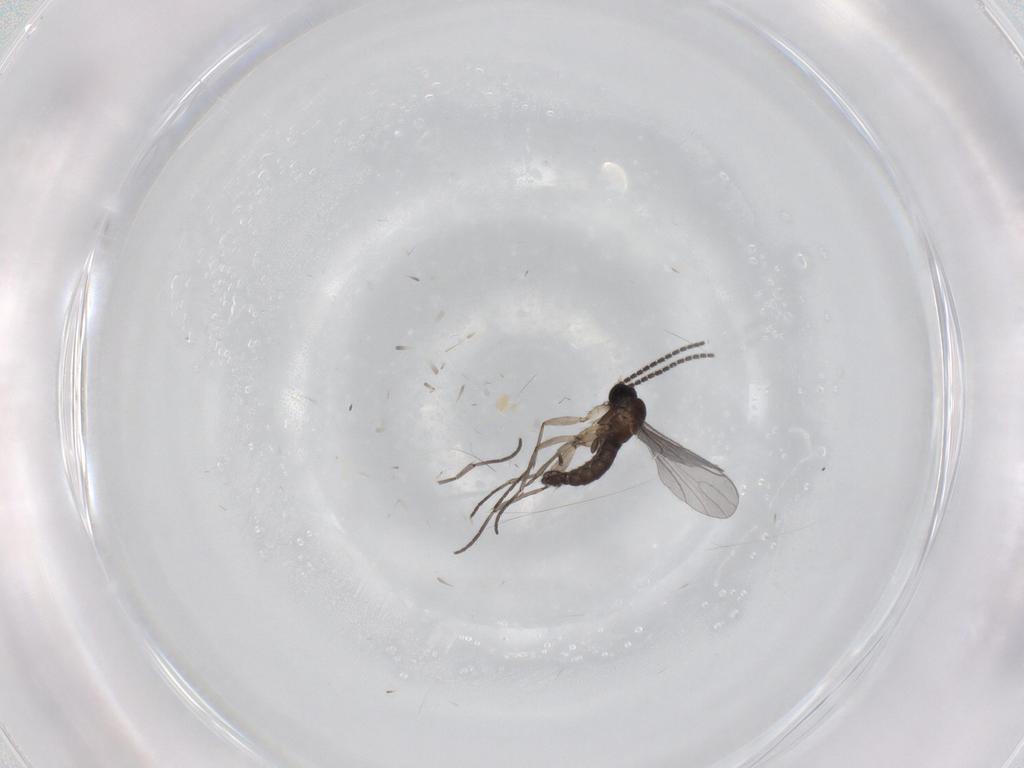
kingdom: Animalia
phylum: Arthropoda
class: Insecta
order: Diptera
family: Sciaridae
